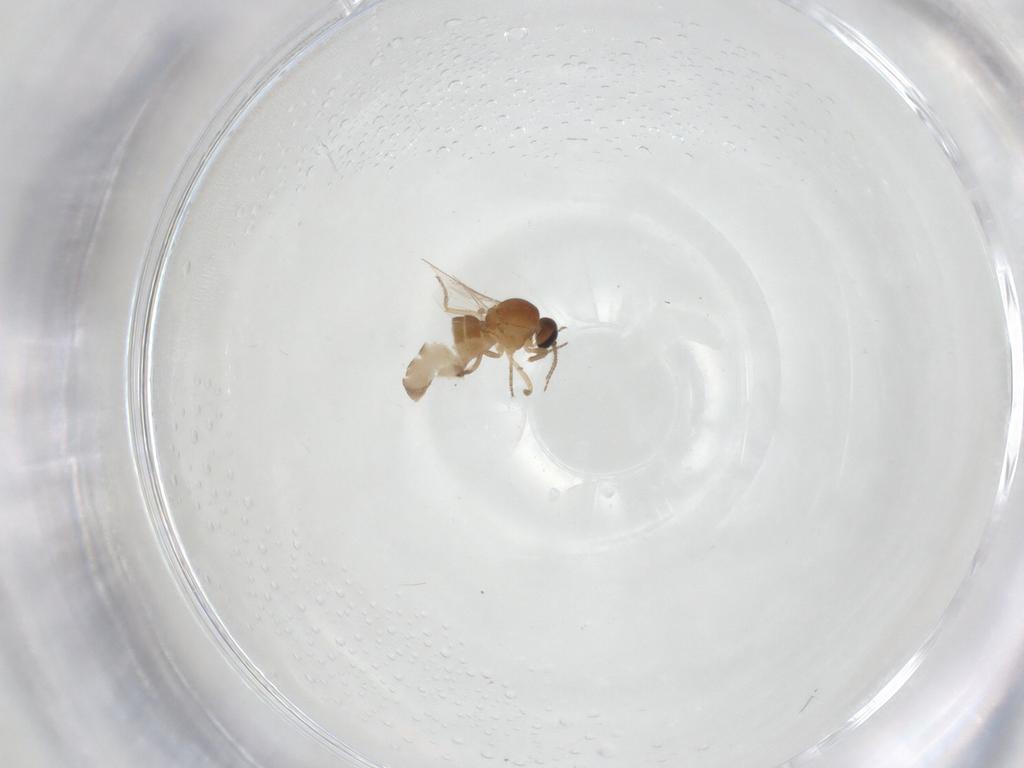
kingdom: Animalia
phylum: Arthropoda
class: Insecta
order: Diptera
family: Ceratopogonidae
